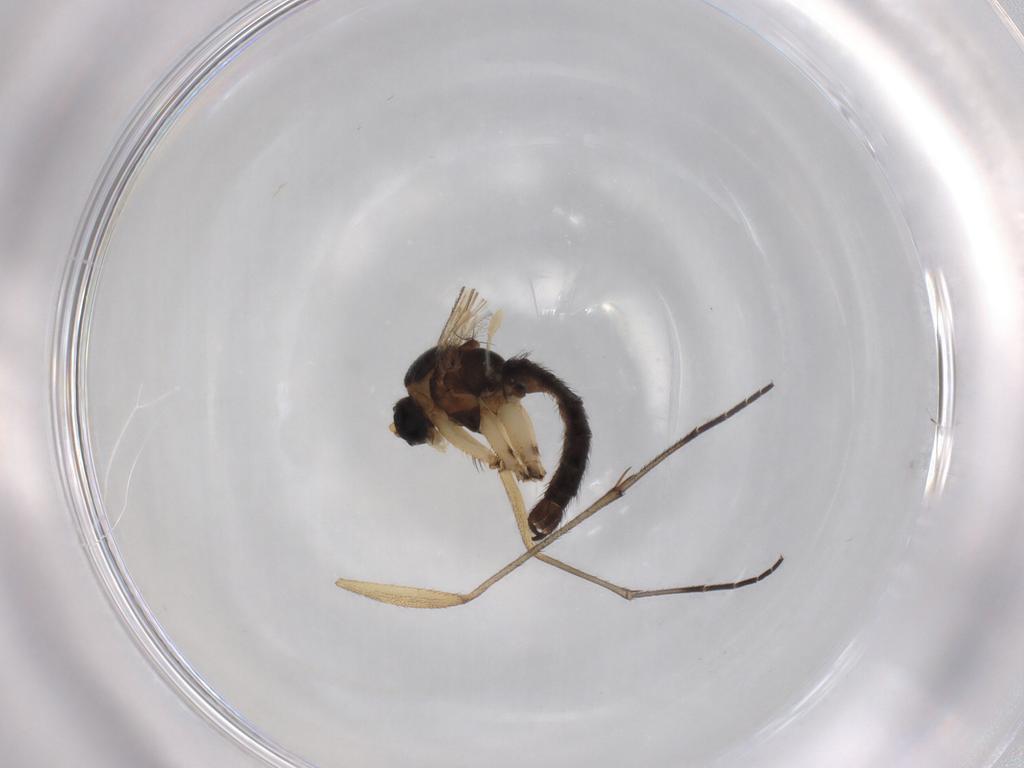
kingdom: Animalia
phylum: Arthropoda
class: Insecta
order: Diptera
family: Sciaridae
